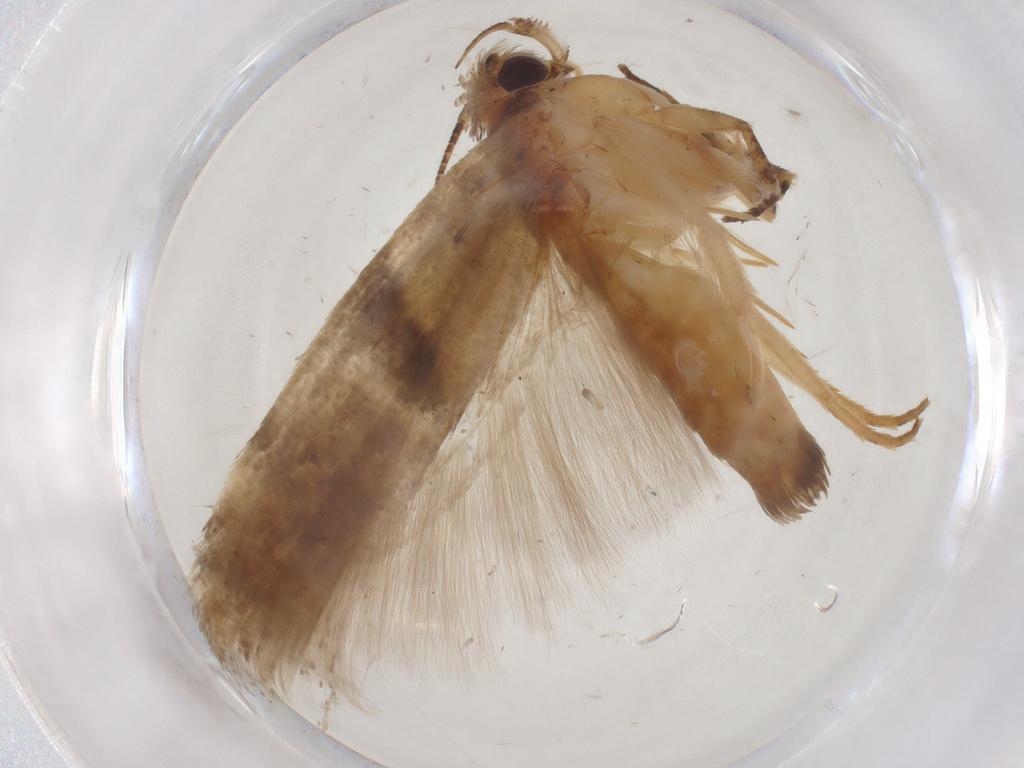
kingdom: Animalia
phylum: Arthropoda
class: Insecta
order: Lepidoptera
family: Gelechiidae
